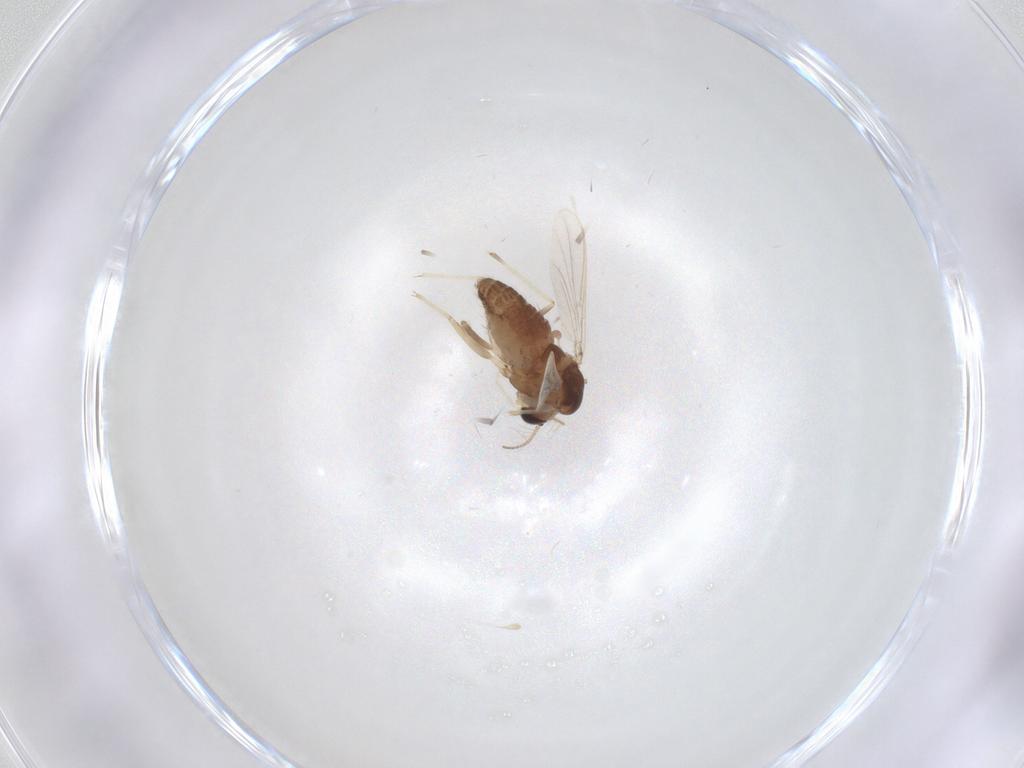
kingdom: Animalia
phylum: Arthropoda
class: Insecta
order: Diptera
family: Chironomidae
